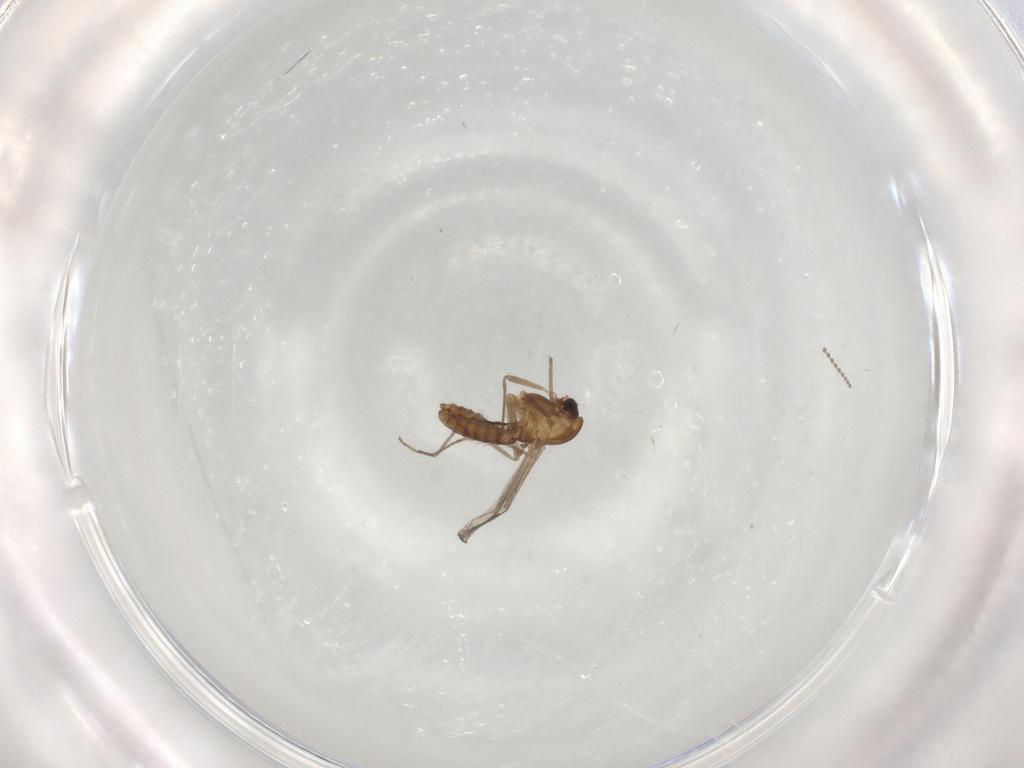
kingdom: Animalia
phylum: Arthropoda
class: Insecta
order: Diptera
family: Chironomidae
